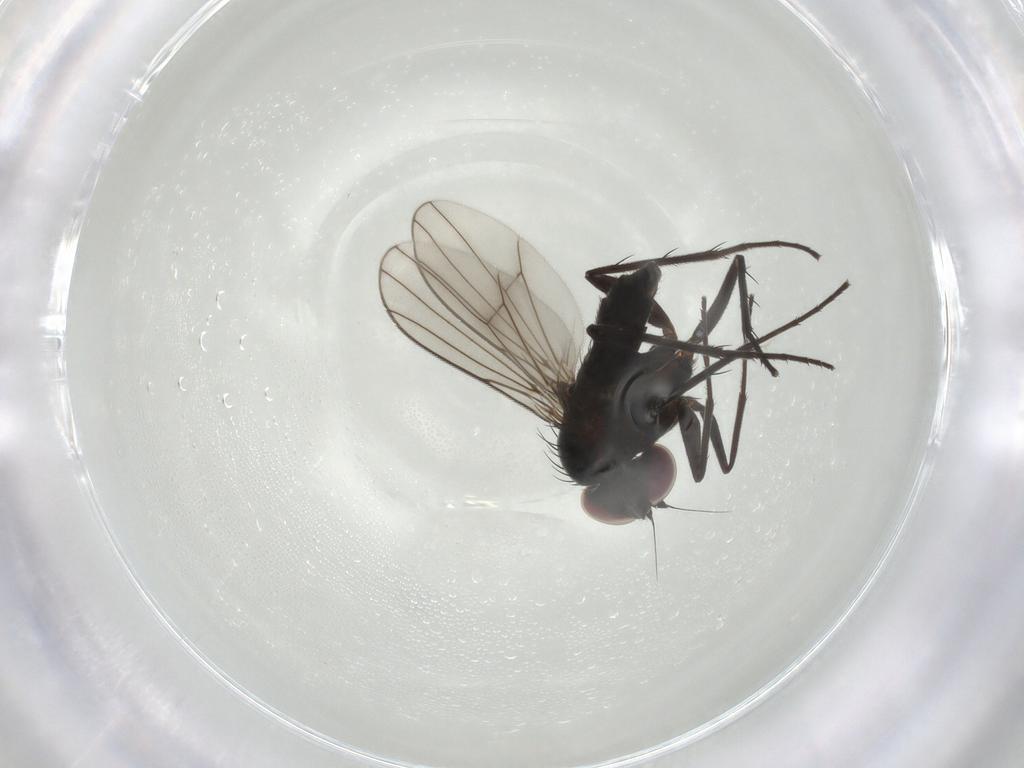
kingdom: Animalia
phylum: Arthropoda
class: Insecta
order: Diptera
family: Dolichopodidae
